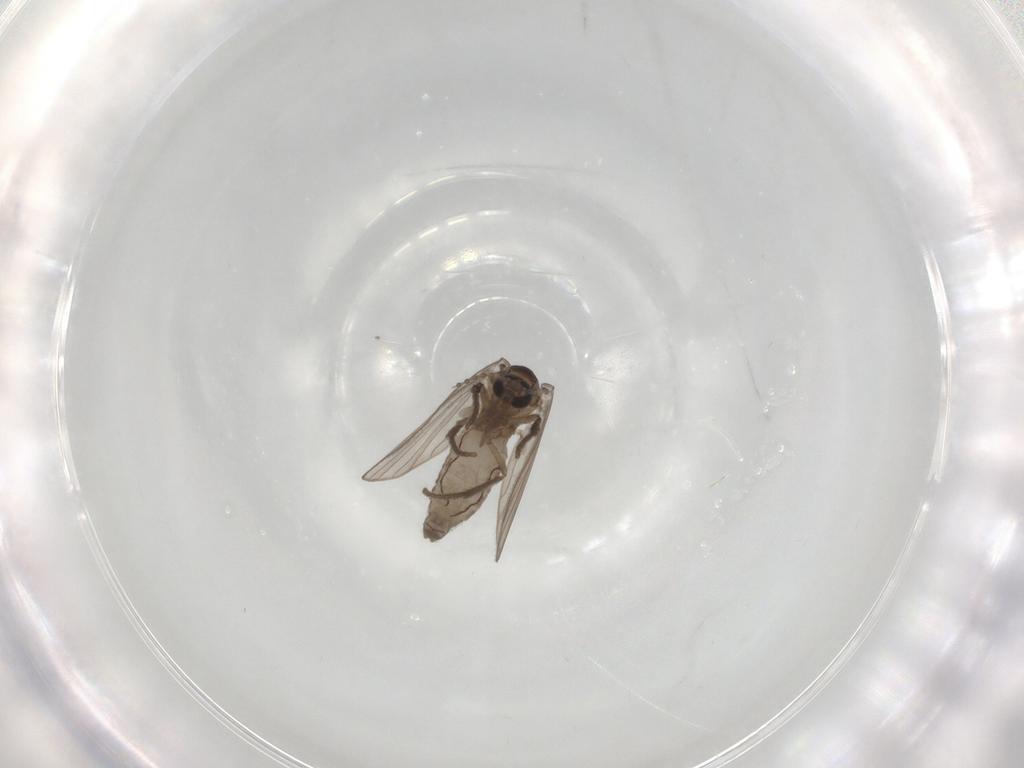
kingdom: Animalia
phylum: Arthropoda
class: Insecta
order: Diptera
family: Psychodidae
